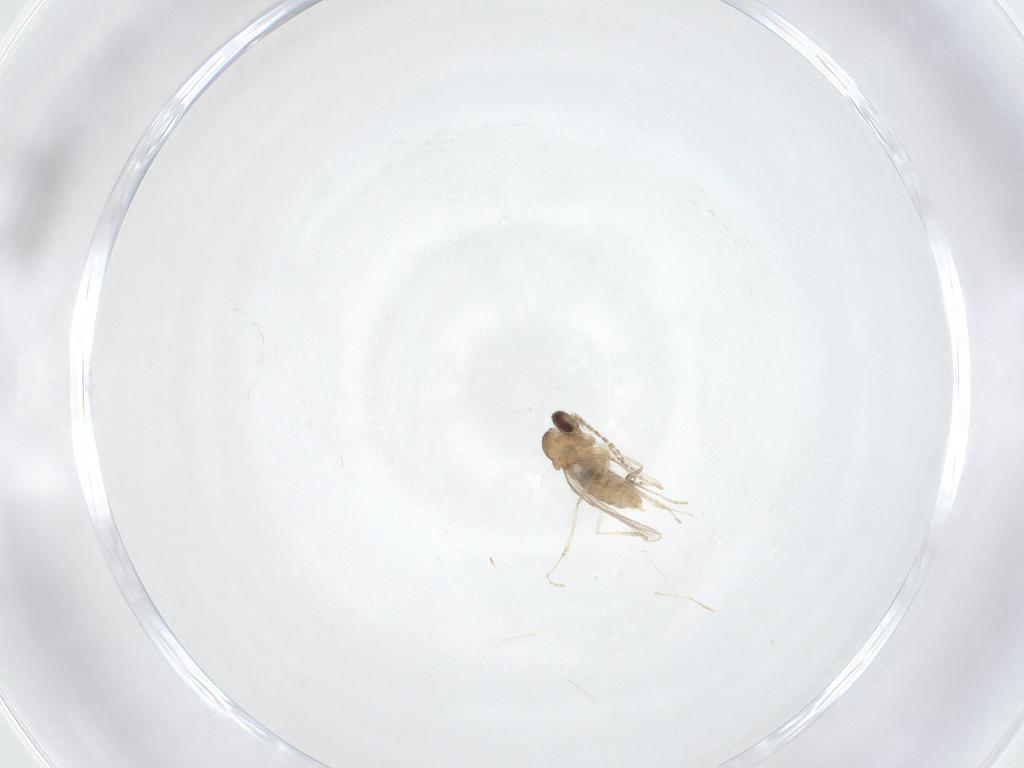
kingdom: Animalia
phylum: Arthropoda
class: Insecta
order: Diptera
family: Cecidomyiidae
